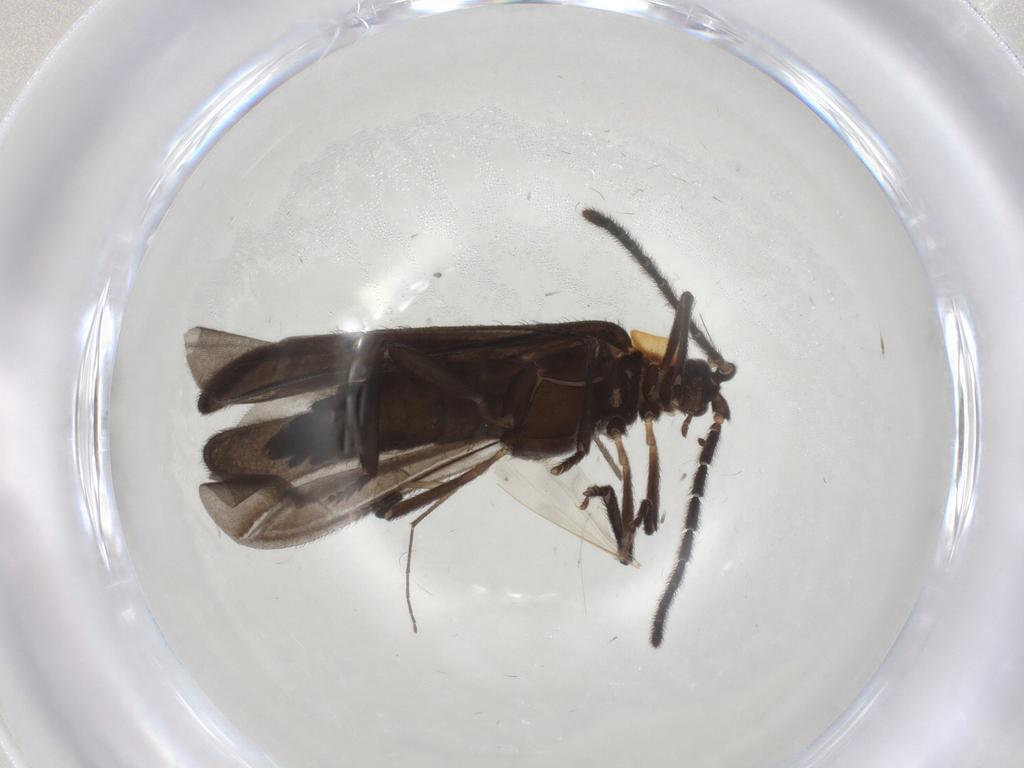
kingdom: Animalia
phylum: Arthropoda
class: Insecta
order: Coleoptera
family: Lycidae
